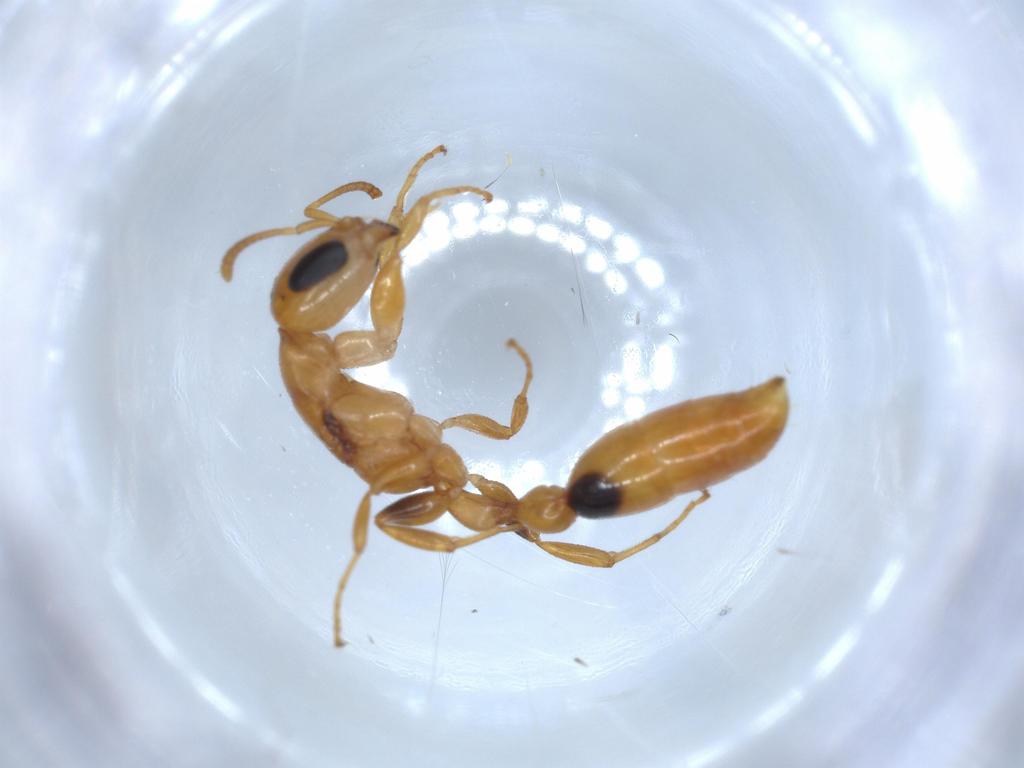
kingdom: Animalia
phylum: Arthropoda
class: Insecta
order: Hymenoptera
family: Formicidae
